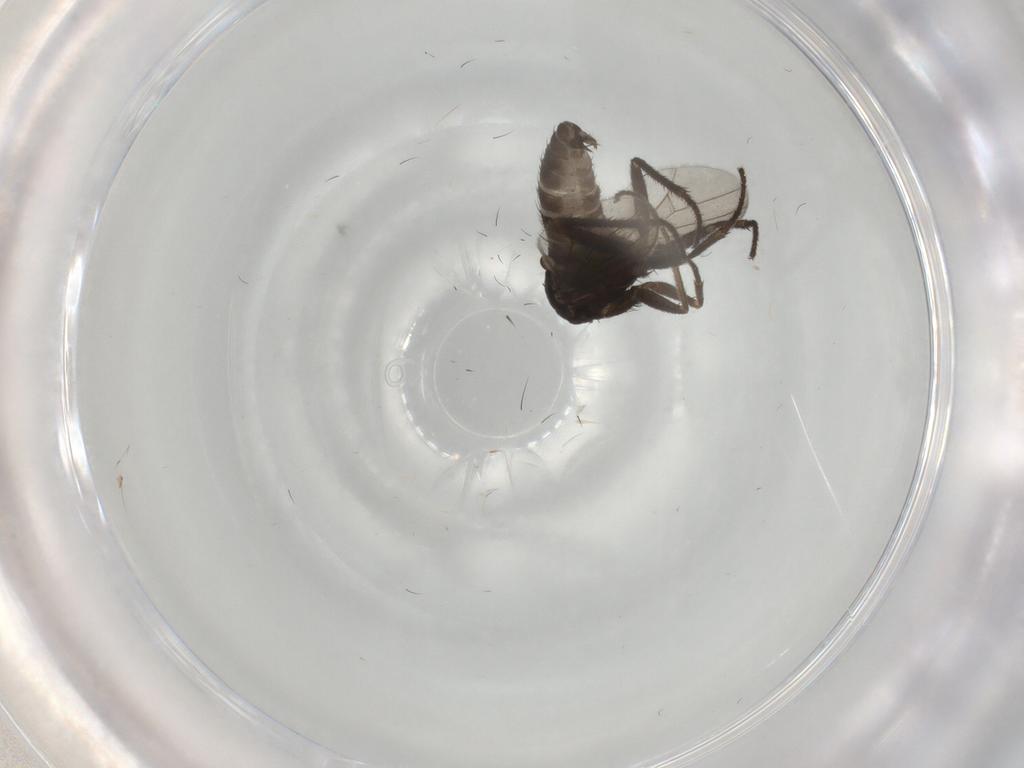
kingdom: Animalia
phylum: Arthropoda
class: Insecta
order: Diptera
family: Dolichopodidae
